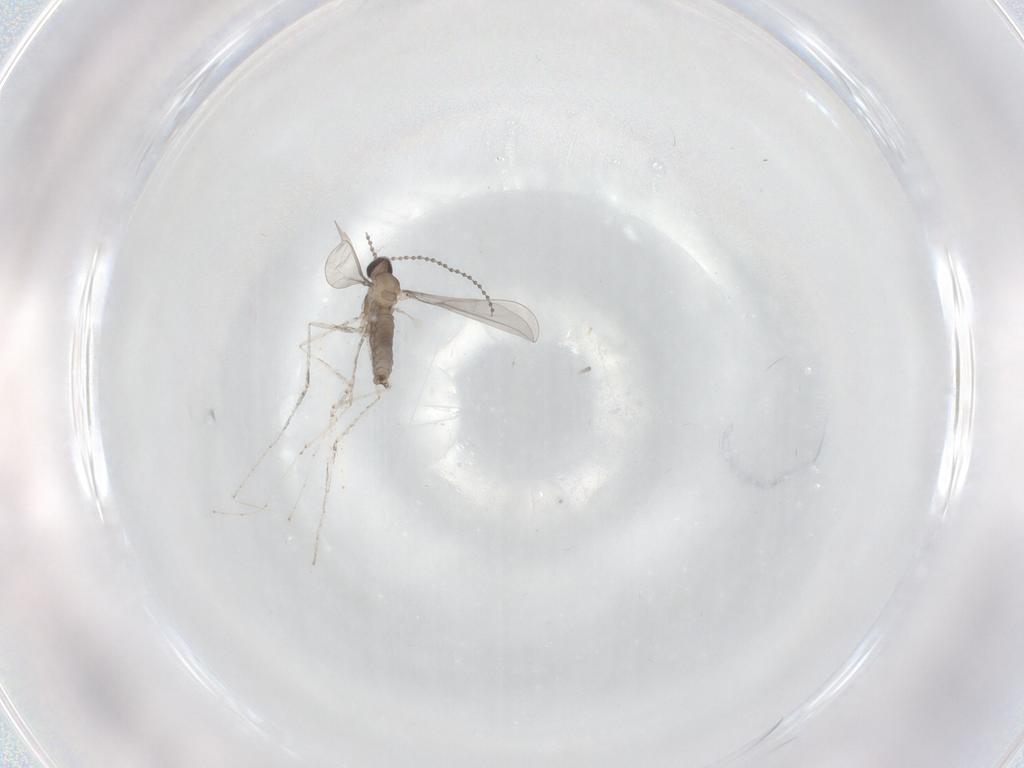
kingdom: Animalia
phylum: Arthropoda
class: Insecta
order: Diptera
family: Cecidomyiidae
